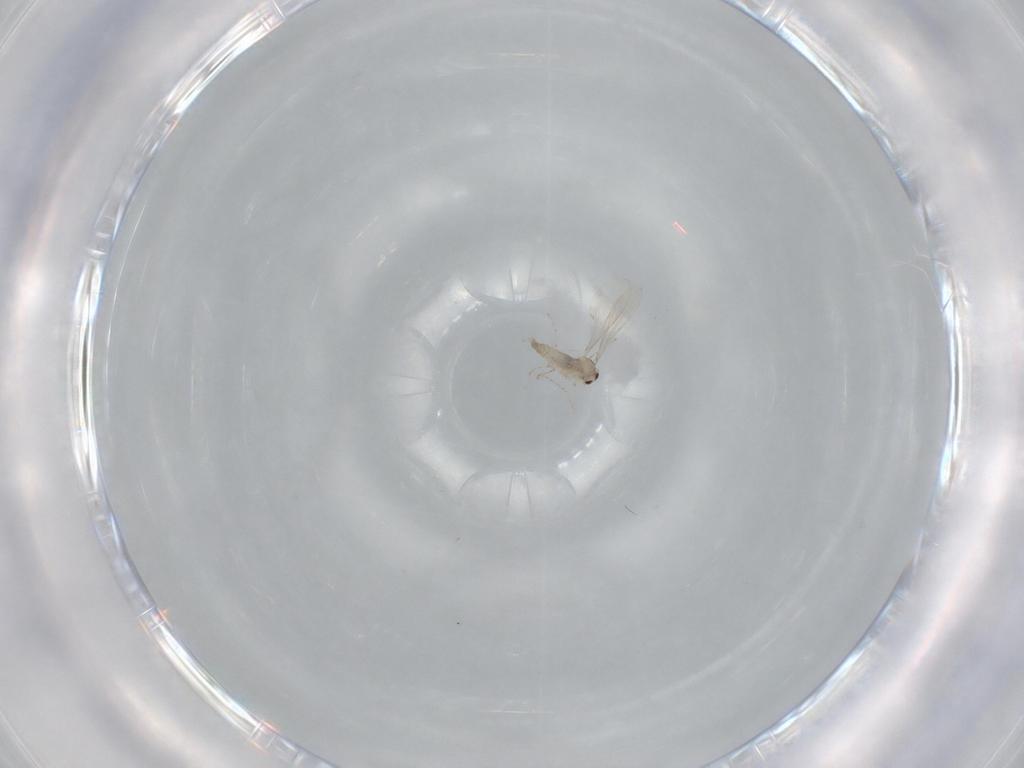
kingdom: Animalia
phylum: Arthropoda
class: Insecta
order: Diptera
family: Cecidomyiidae
